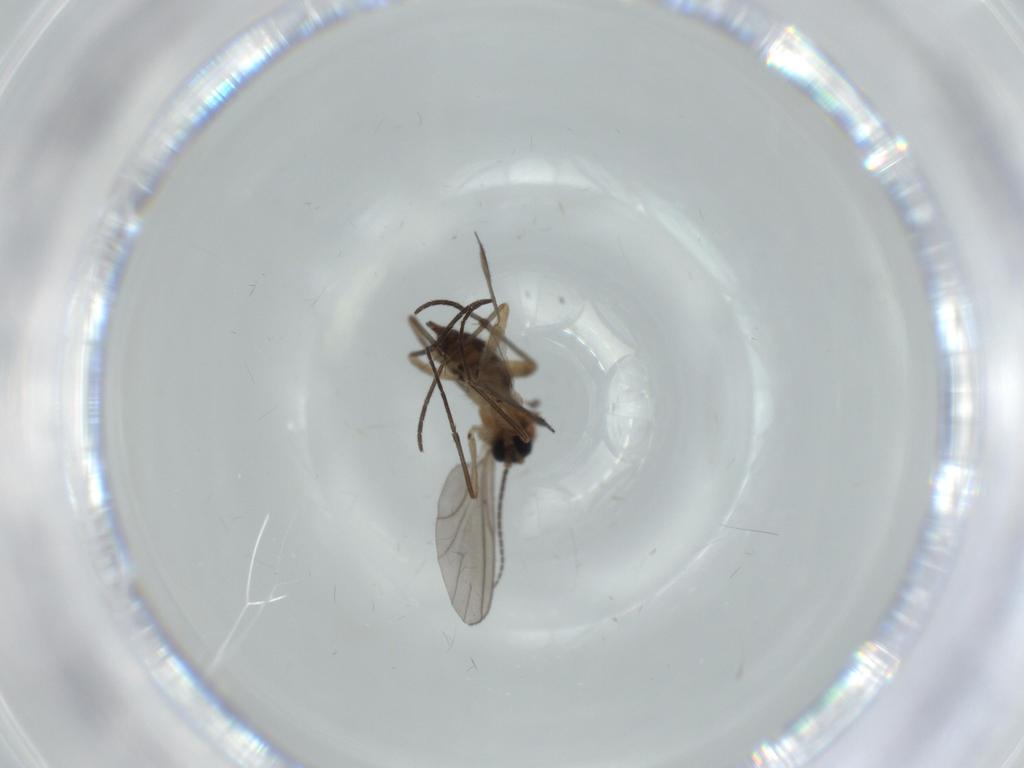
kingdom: Animalia
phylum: Arthropoda
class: Insecta
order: Diptera
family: Sciaridae
